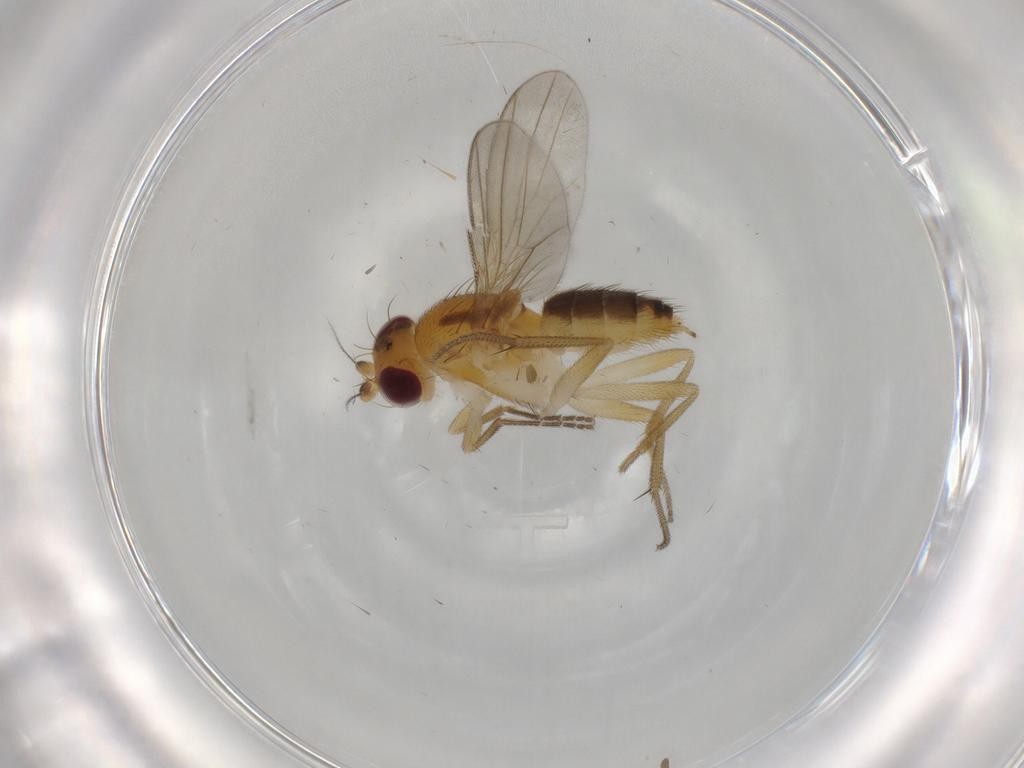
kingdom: Animalia
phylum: Arthropoda
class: Insecta
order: Diptera
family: Clusiidae
